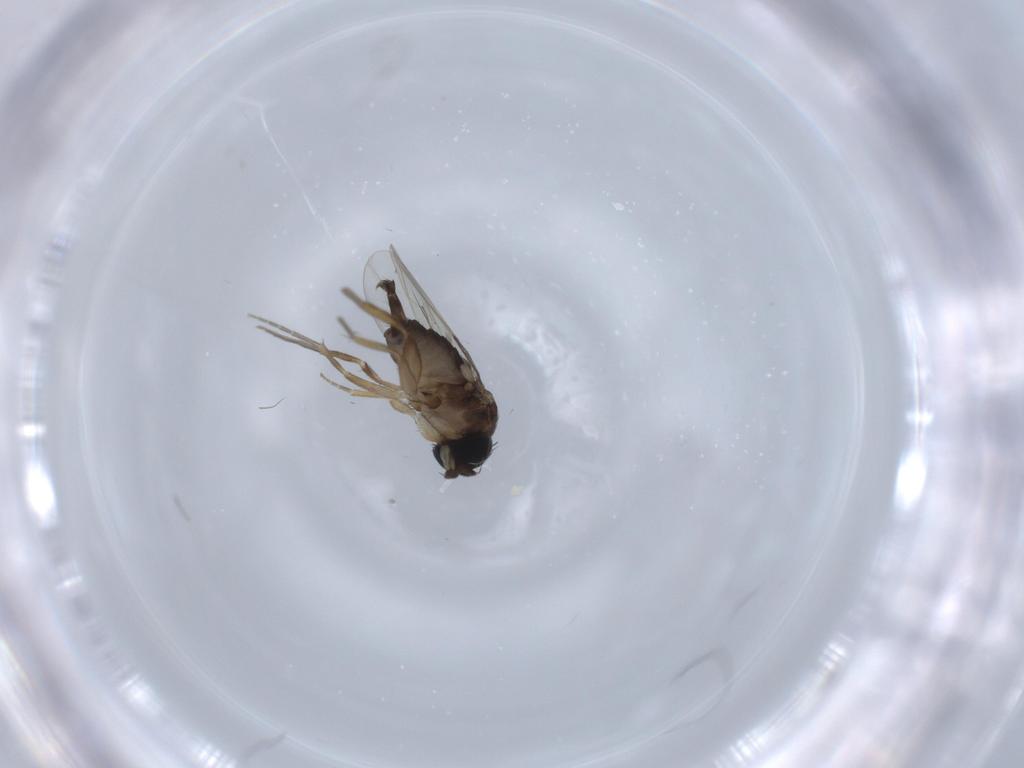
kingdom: Animalia
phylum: Arthropoda
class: Insecta
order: Diptera
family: Phoridae
